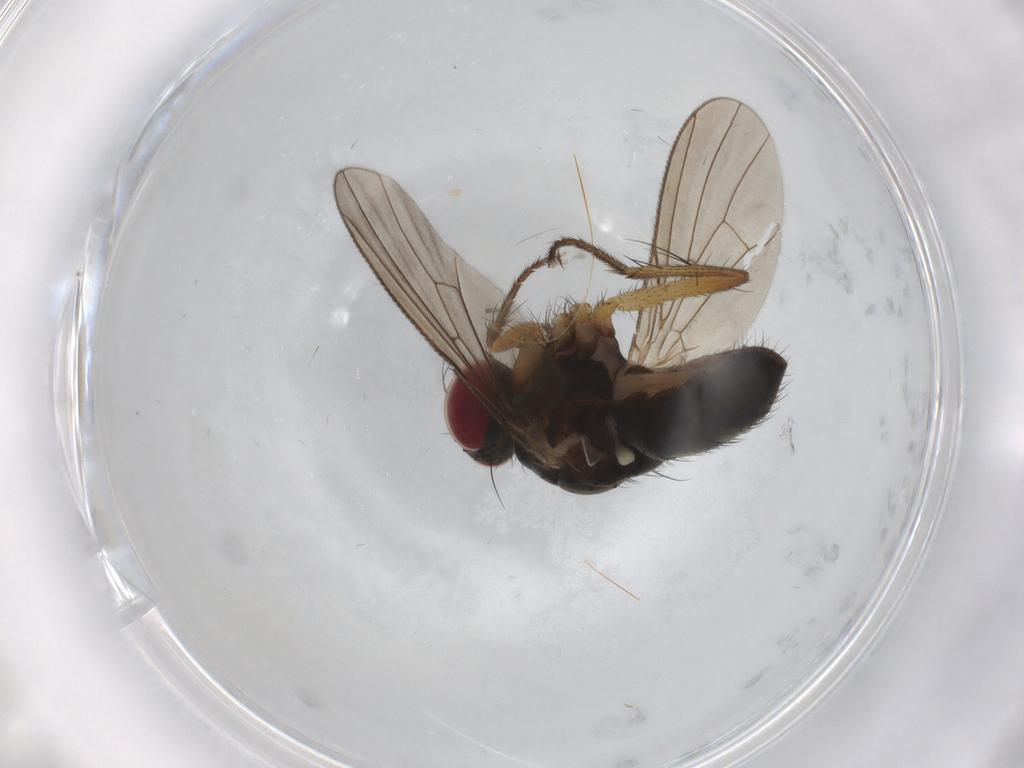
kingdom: Animalia
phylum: Arthropoda
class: Insecta
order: Diptera
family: Muscidae
